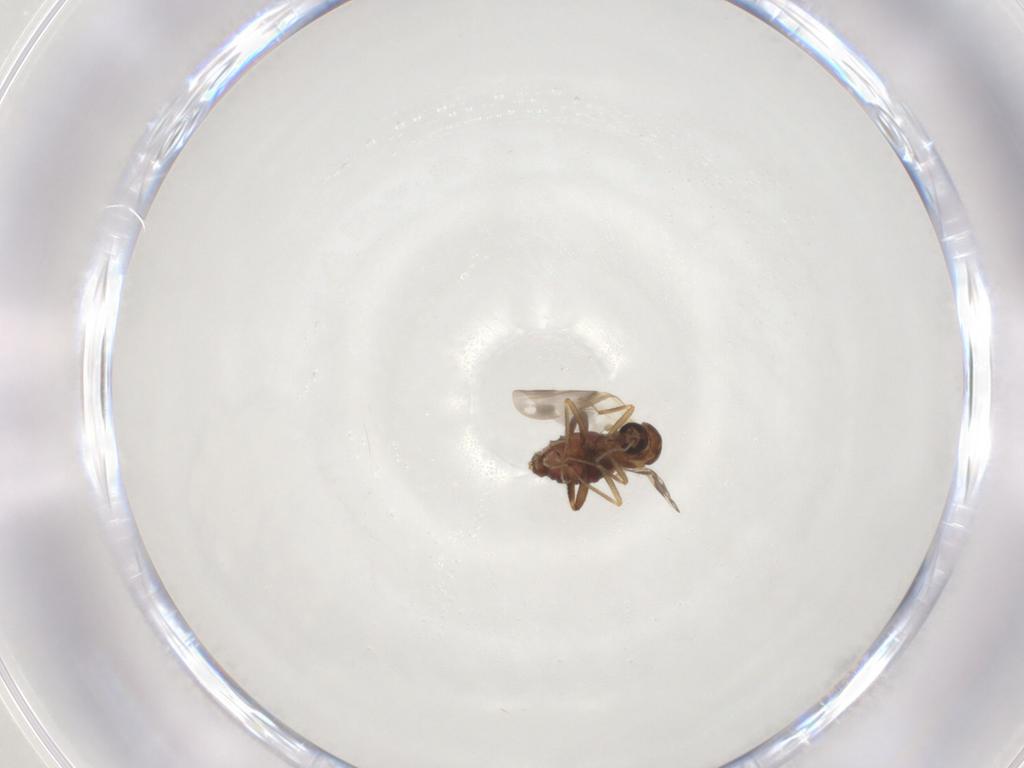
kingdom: Animalia
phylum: Arthropoda
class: Insecta
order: Diptera
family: Ceratopogonidae
